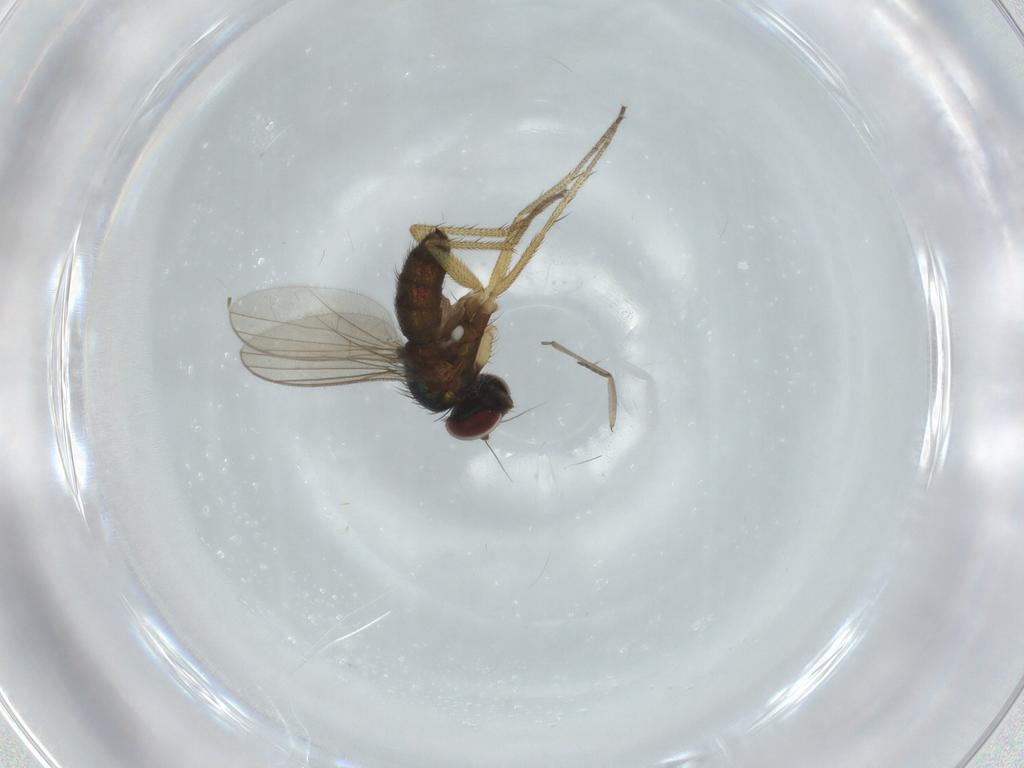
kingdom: Animalia
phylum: Arthropoda
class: Insecta
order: Diptera
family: Dolichopodidae
